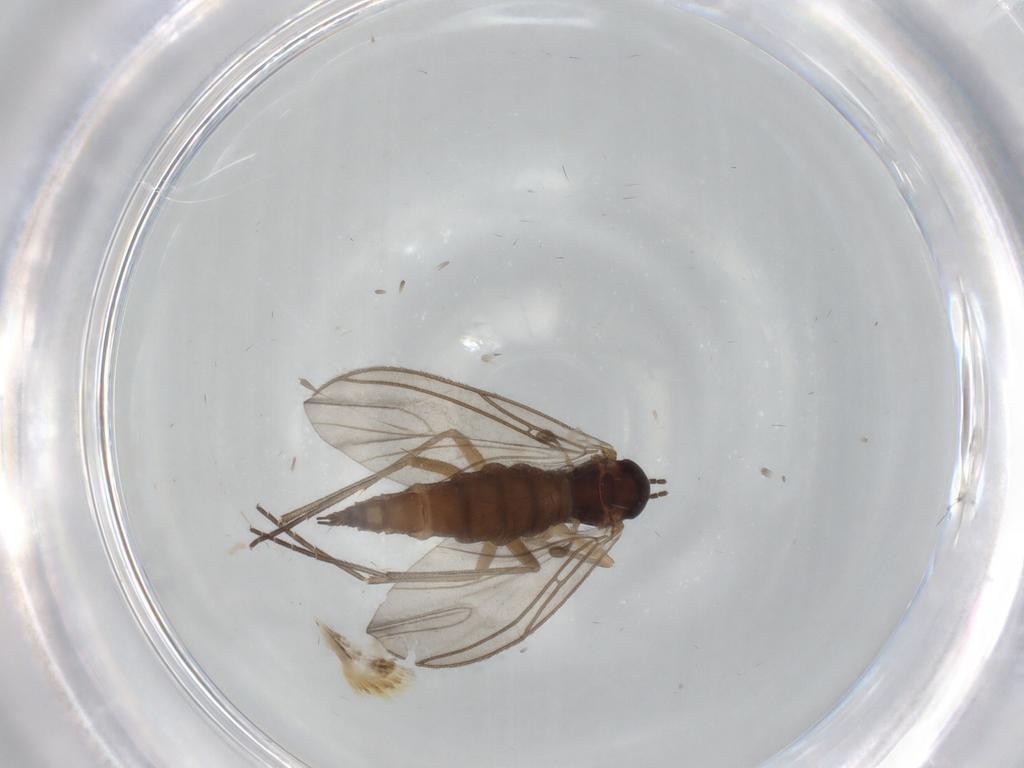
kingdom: Animalia
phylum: Arthropoda
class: Insecta
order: Diptera
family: Sciaridae
